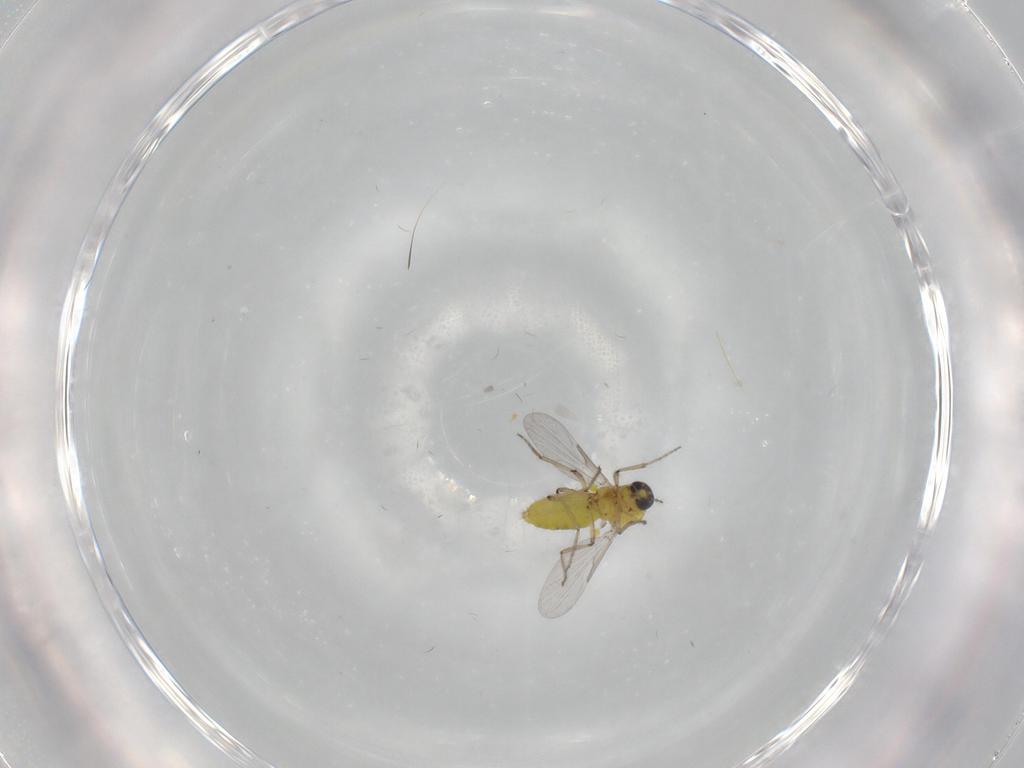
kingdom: Animalia
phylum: Arthropoda
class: Insecta
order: Diptera
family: Ceratopogonidae
